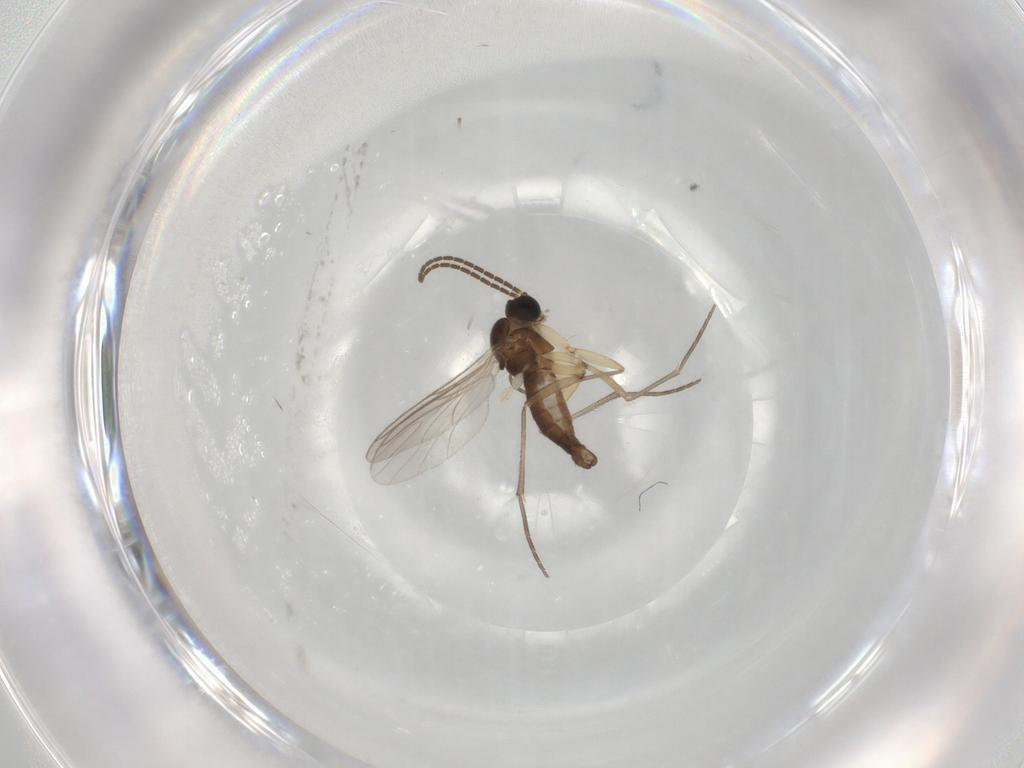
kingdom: Animalia
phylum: Arthropoda
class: Insecta
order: Diptera
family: Sciaridae
